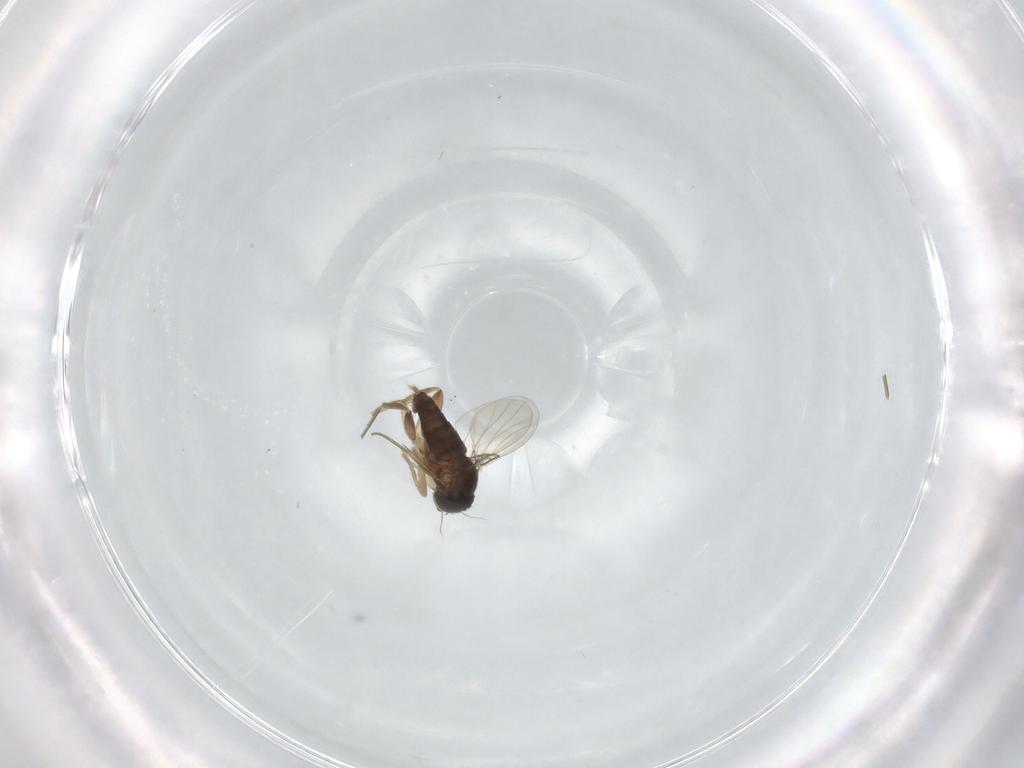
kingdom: Animalia
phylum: Arthropoda
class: Insecta
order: Diptera
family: Phoridae
